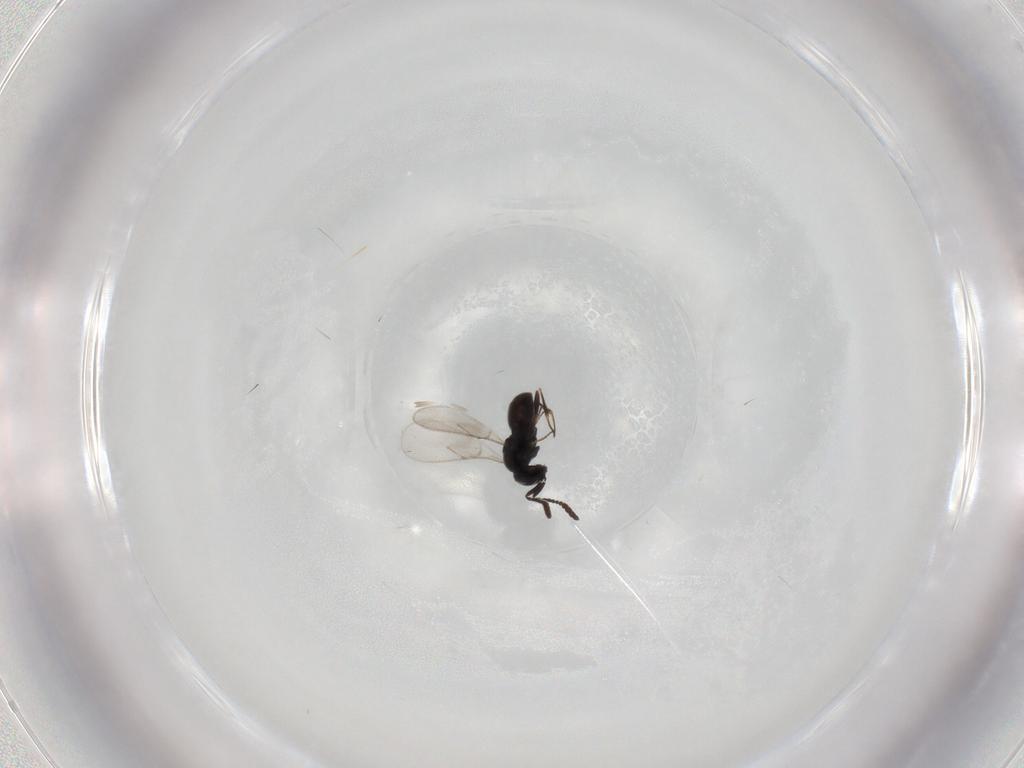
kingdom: Animalia
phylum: Arthropoda
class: Insecta
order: Hymenoptera
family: Scelionidae
